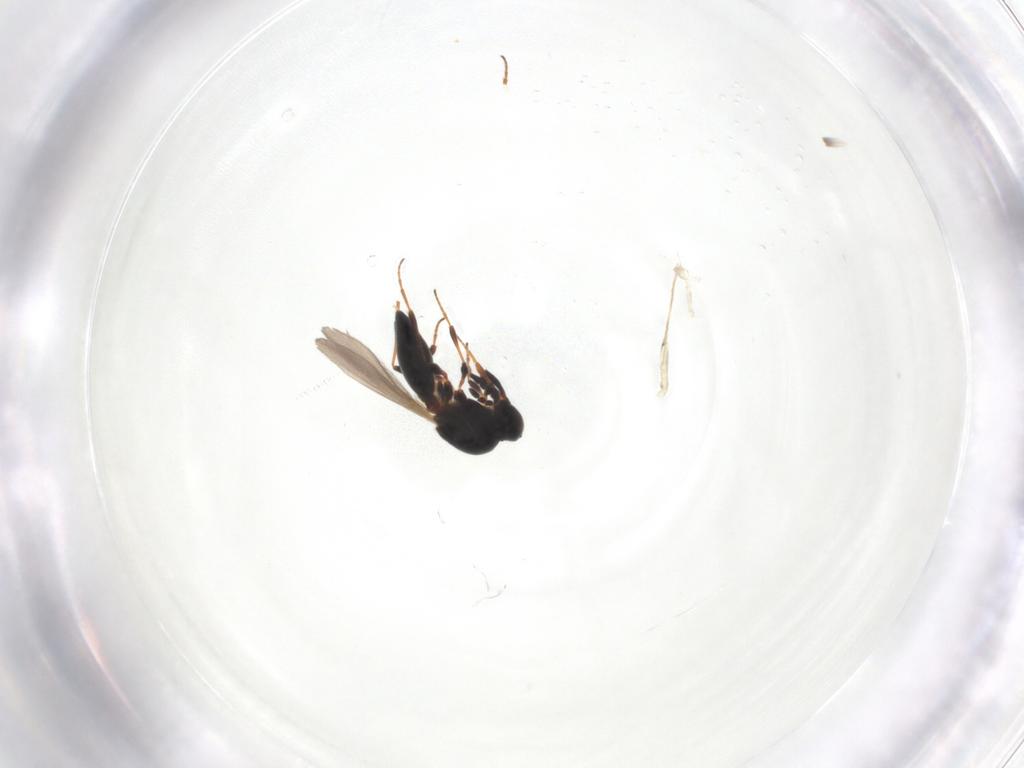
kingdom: Animalia
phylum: Arthropoda
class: Insecta
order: Hymenoptera
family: Platygastridae
